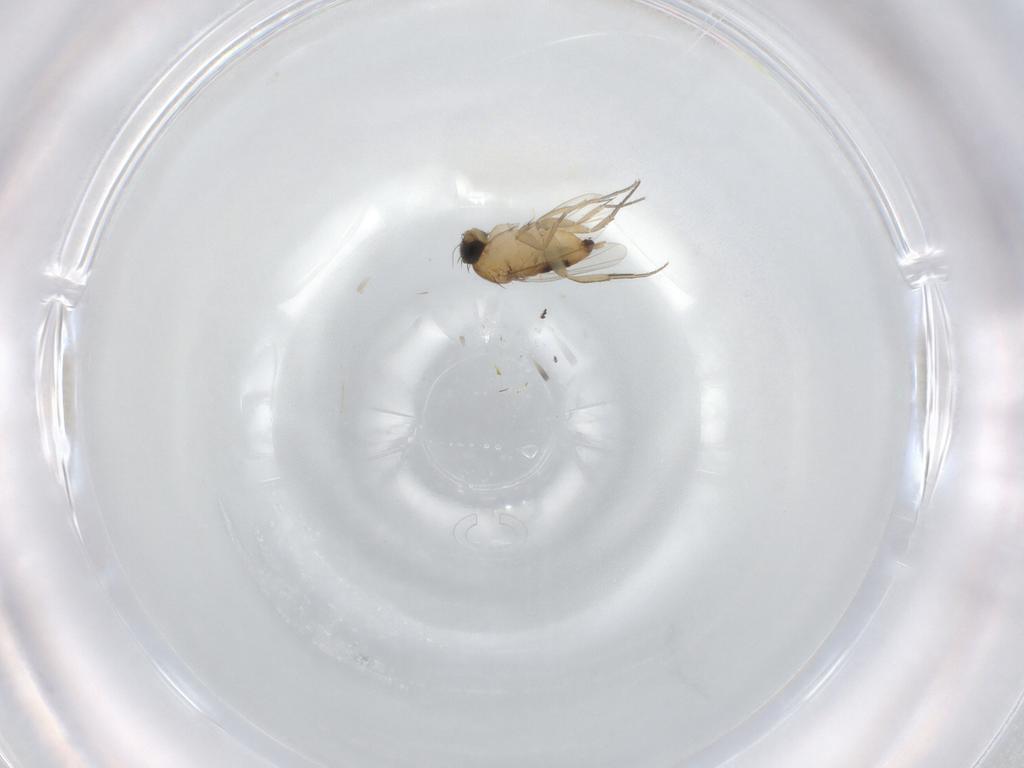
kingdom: Animalia
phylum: Arthropoda
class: Insecta
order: Diptera
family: Phoridae
